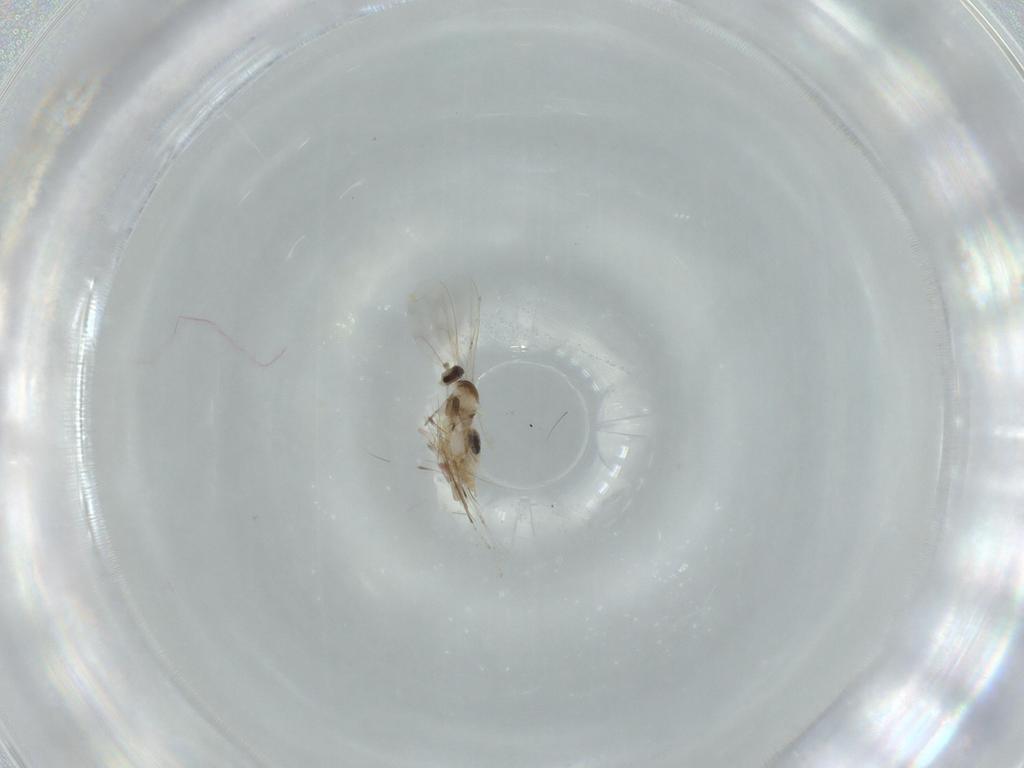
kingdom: Animalia
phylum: Arthropoda
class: Insecta
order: Diptera
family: Cecidomyiidae
